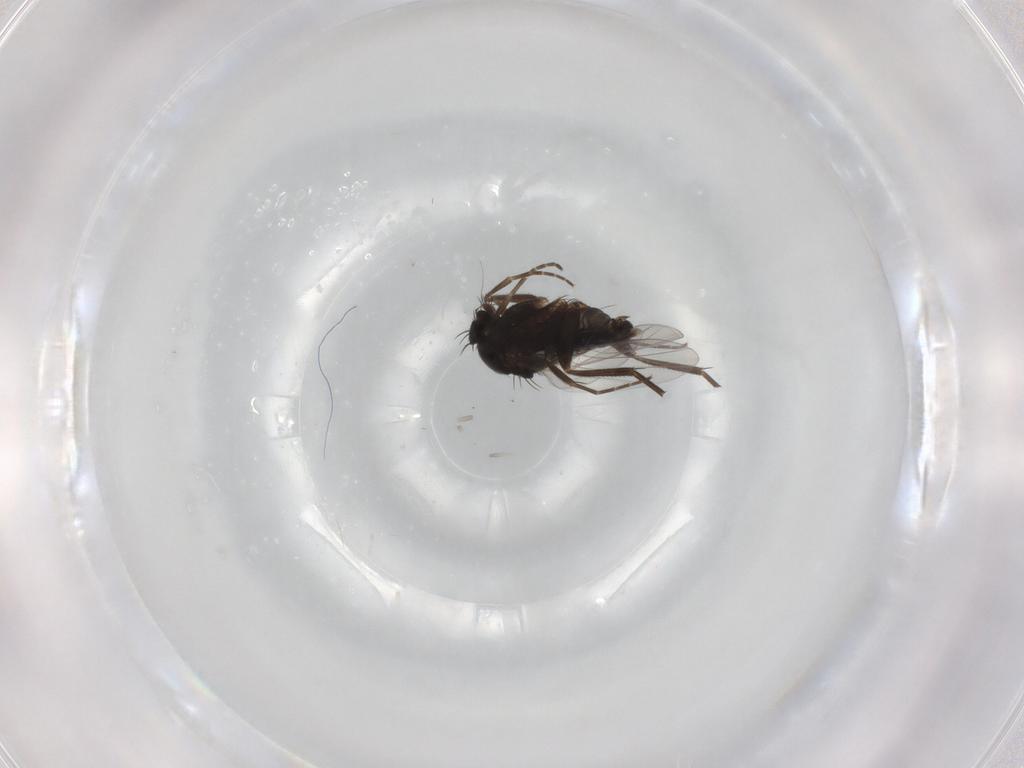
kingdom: Animalia
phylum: Arthropoda
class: Insecta
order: Diptera
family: Phoridae
